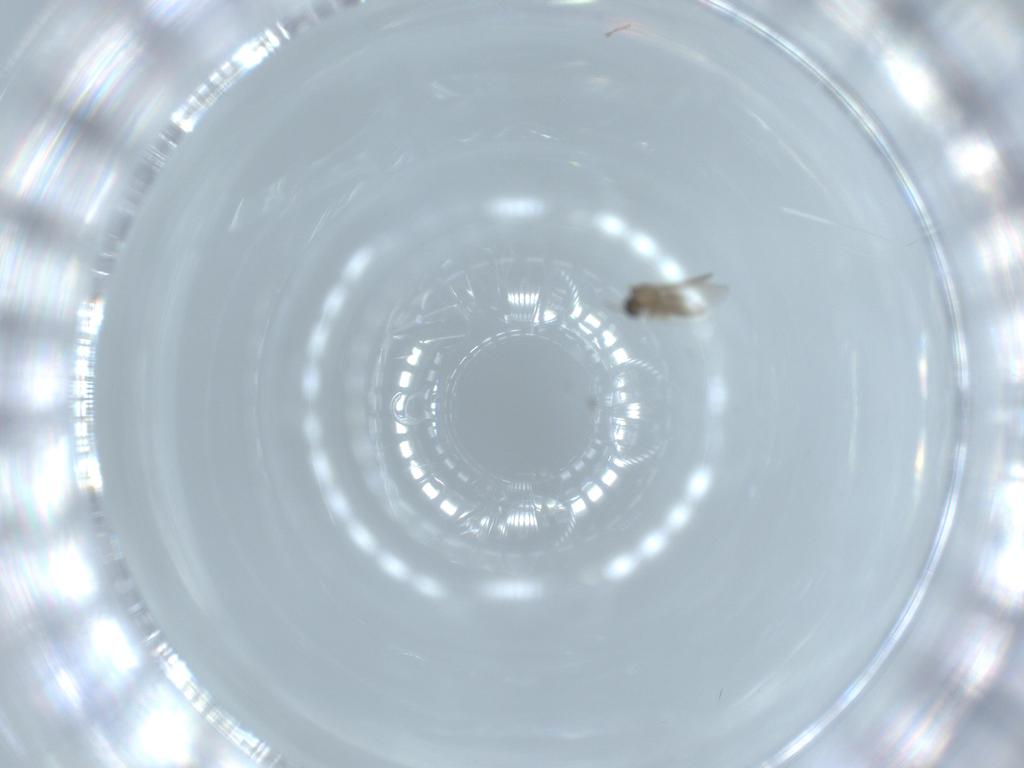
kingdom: Animalia
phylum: Arthropoda
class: Insecta
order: Diptera
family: Cecidomyiidae
